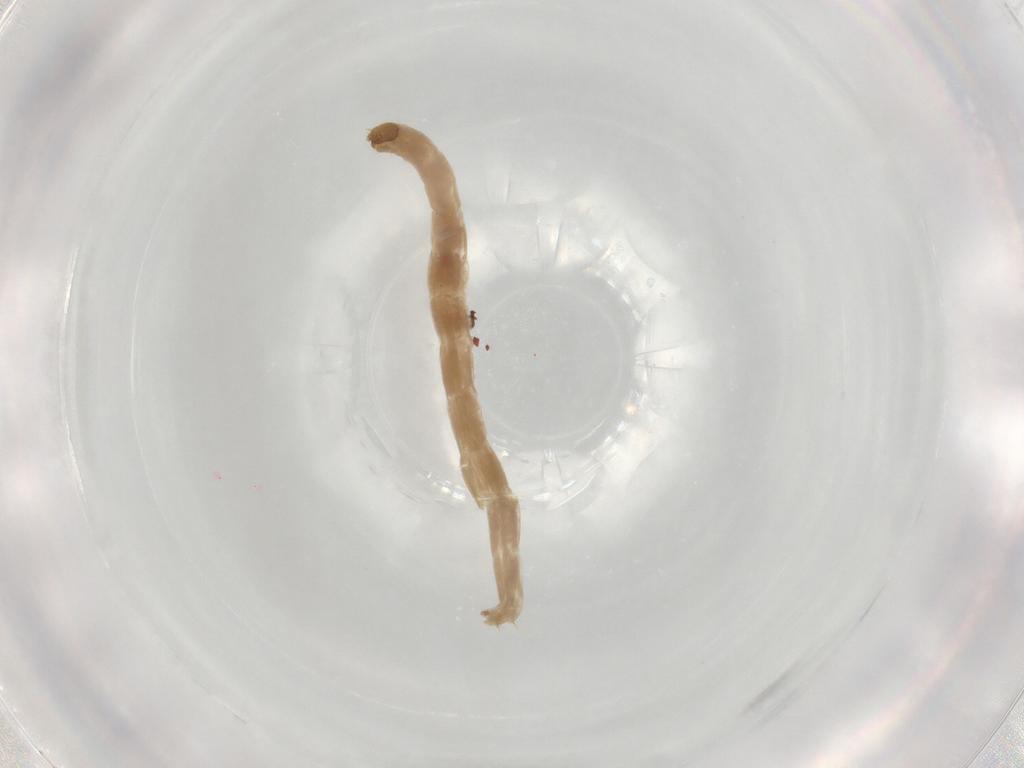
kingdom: Animalia
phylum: Arthropoda
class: Insecta
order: Diptera
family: Chironomidae
